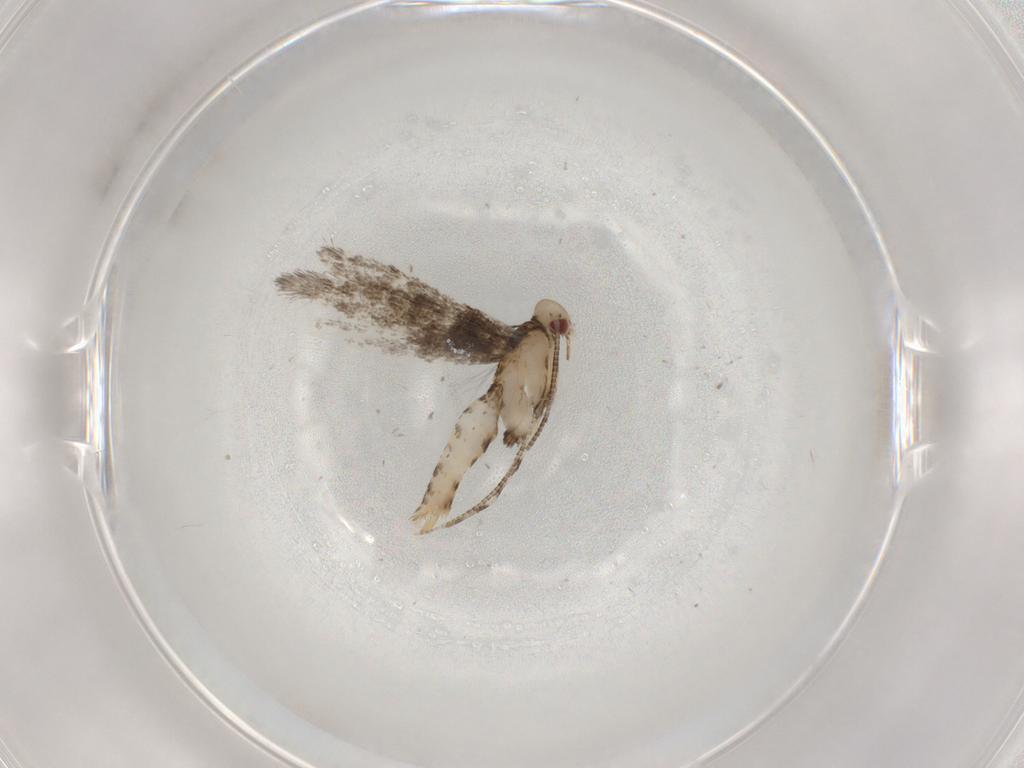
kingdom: Animalia
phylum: Arthropoda
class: Insecta
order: Lepidoptera
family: Gracillariidae
